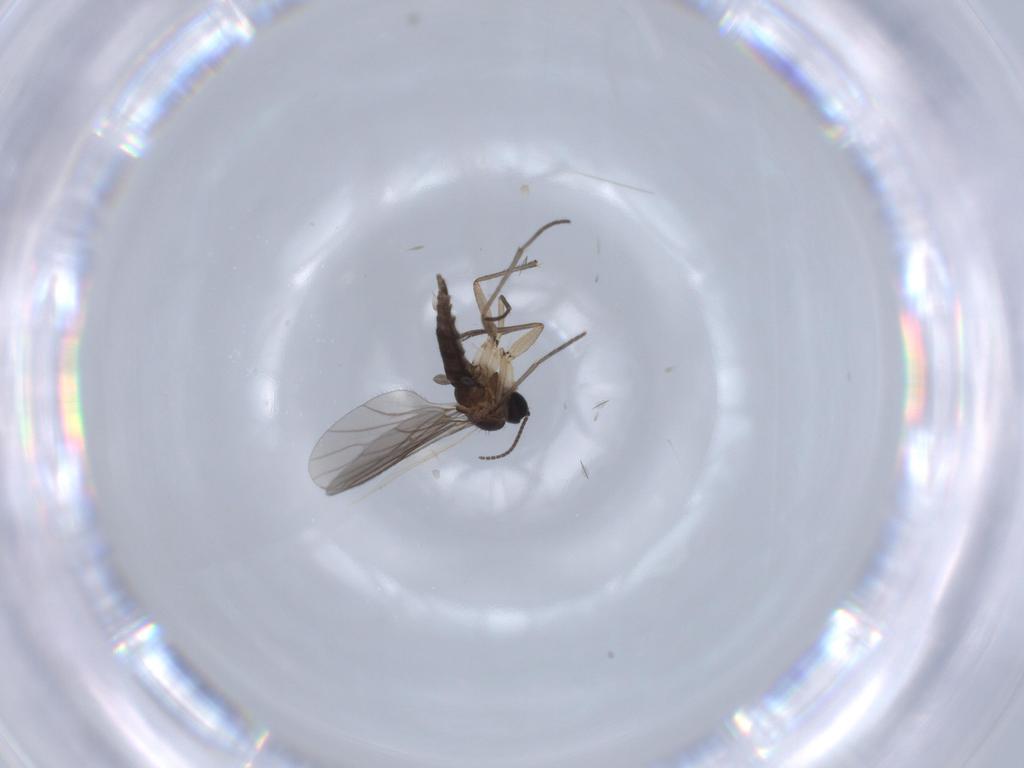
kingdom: Animalia
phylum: Arthropoda
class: Insecta
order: Diptera
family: Sciaridae
